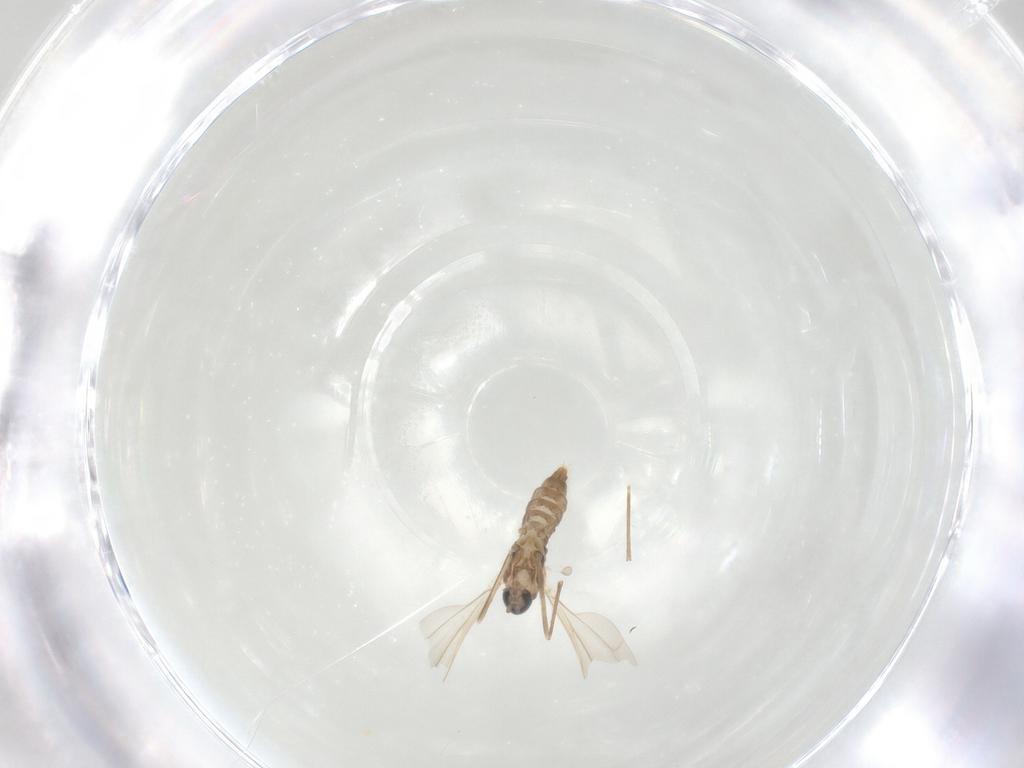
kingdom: Animalia
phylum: Arthropoda
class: Insecta
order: Diptera
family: Cecidomyiidae
